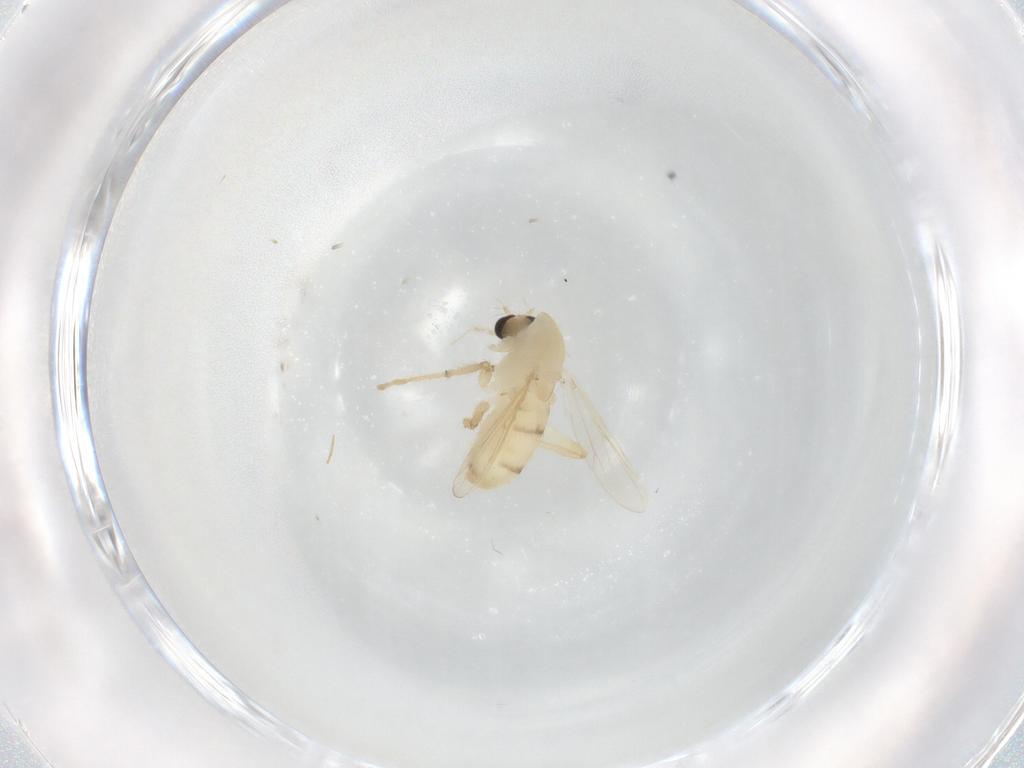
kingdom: Animalia
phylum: Arthropoda
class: Insecta
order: Diptera
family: Chironomidae
